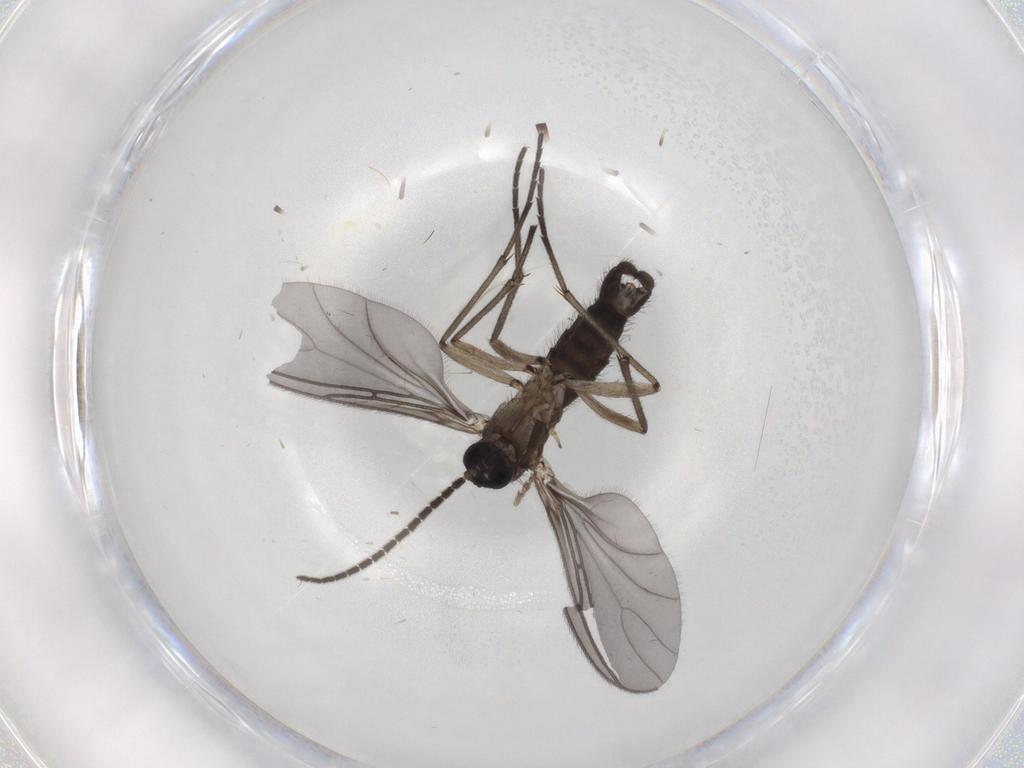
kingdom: Animalia
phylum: Arthropoda
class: Insecta
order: Diptera
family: Sciaridae
